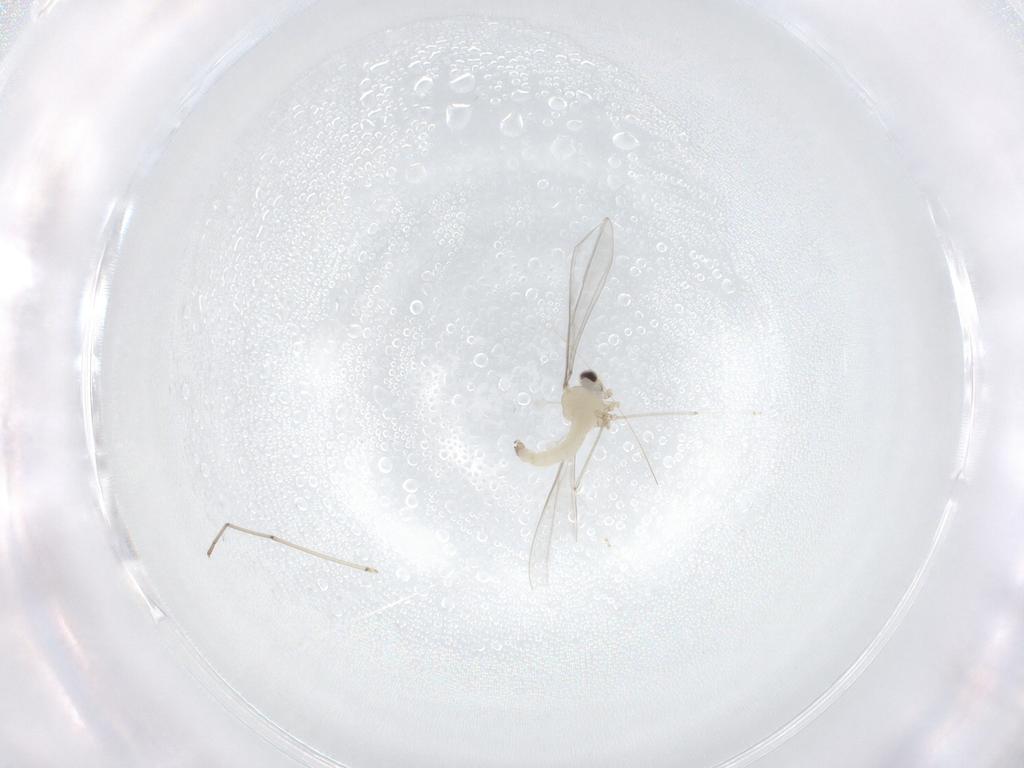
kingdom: Animalia
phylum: Arthropoda
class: Insecta
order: Diptera
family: Cecidomyiidae
